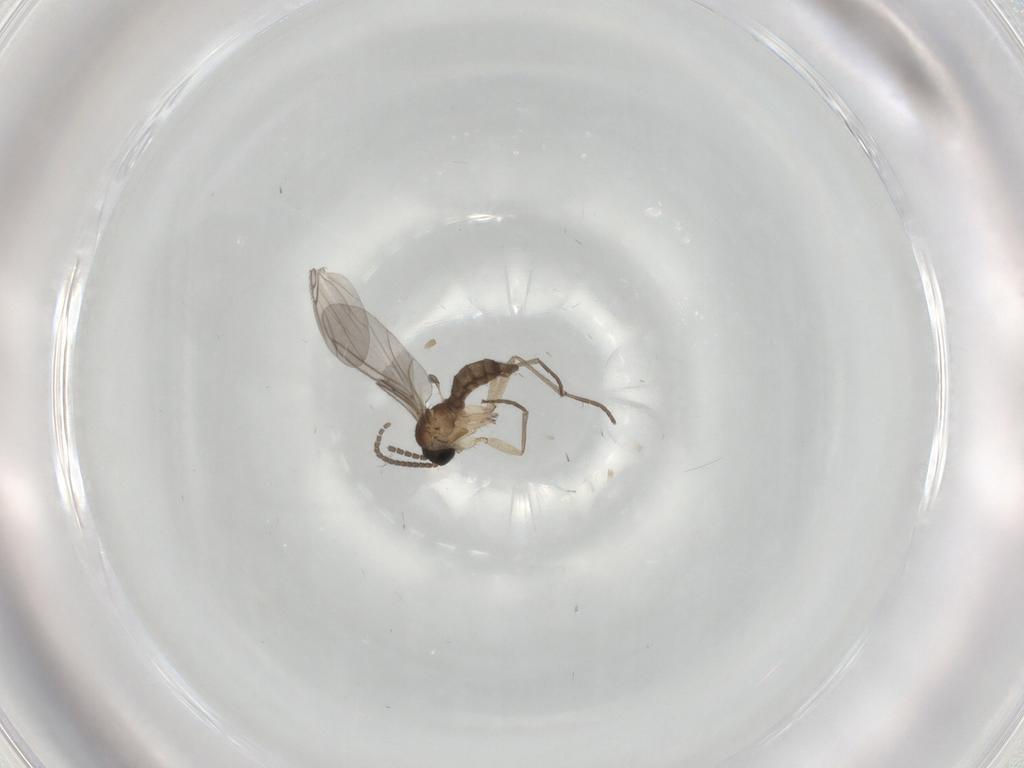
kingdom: Animalia
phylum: Arthropoda
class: Insecta
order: Diptera
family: Sciaridae
